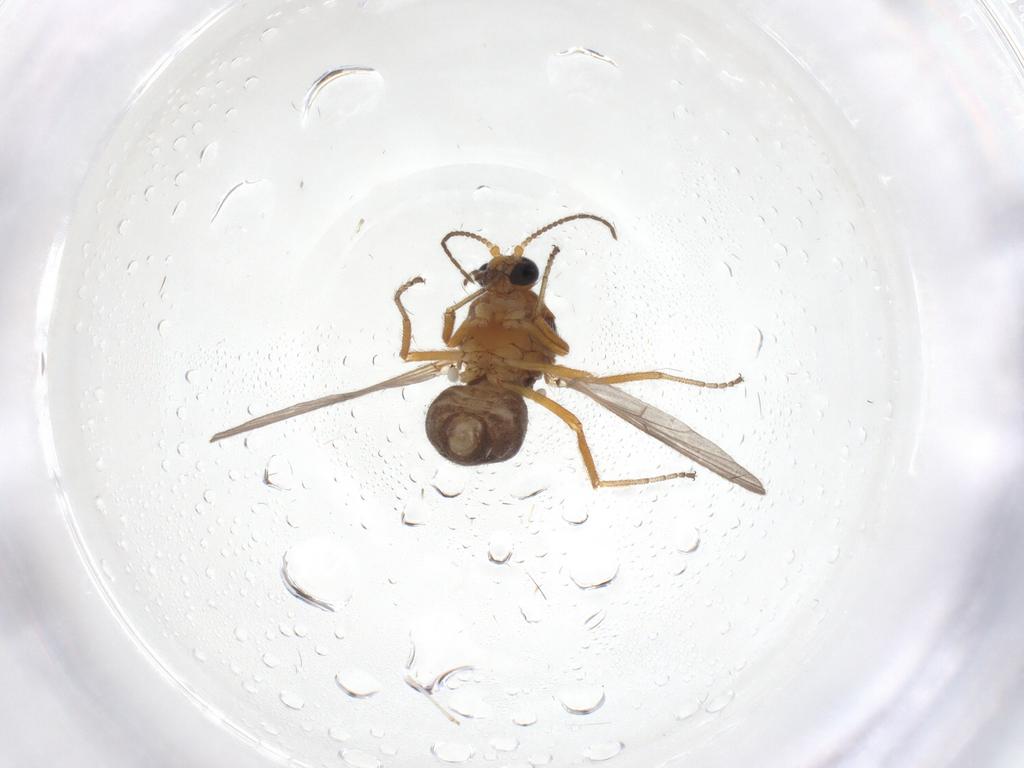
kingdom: Animalia
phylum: Arthropoda
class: Insecta
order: Diptera
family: Ceratopogonidae
